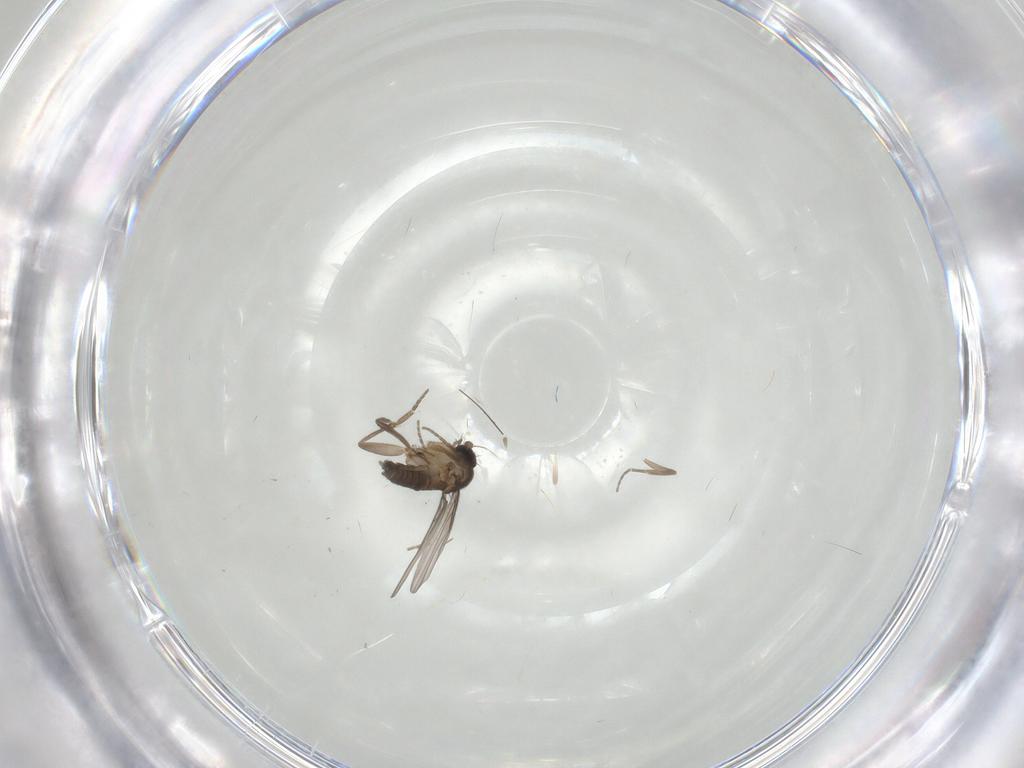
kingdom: Animalia
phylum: Arthropoda
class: Insecta
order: Diptera
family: Phoridae
